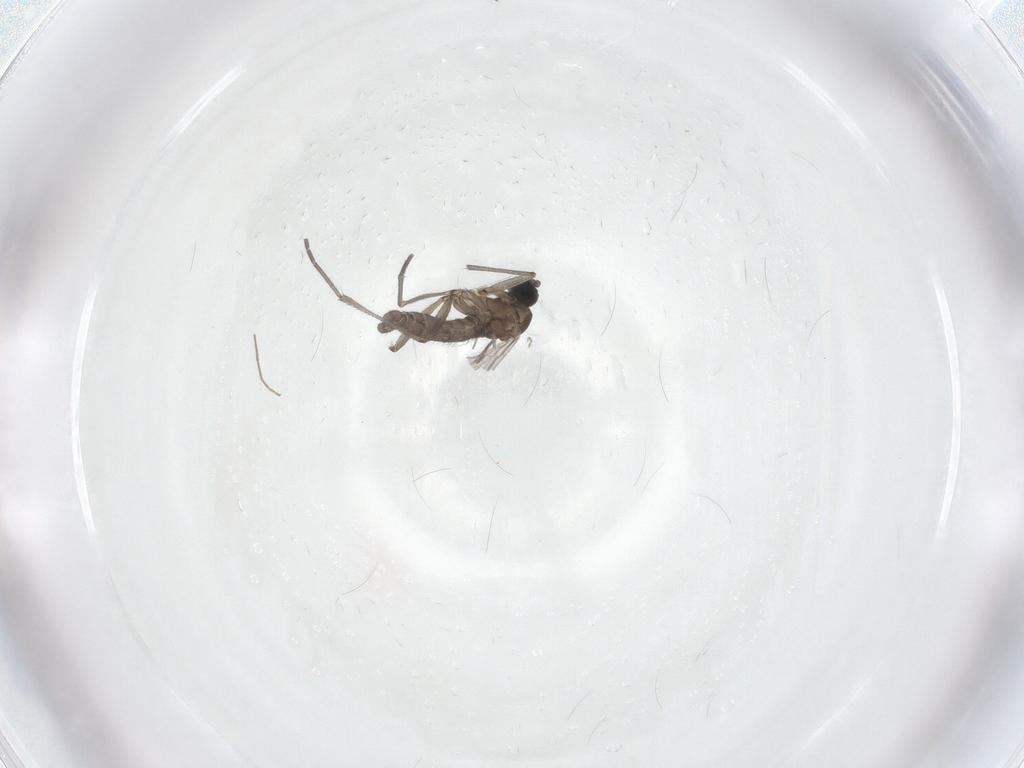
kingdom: Animalia
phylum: Arthropoda
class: Insecta
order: Diptera
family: Sciaridae
